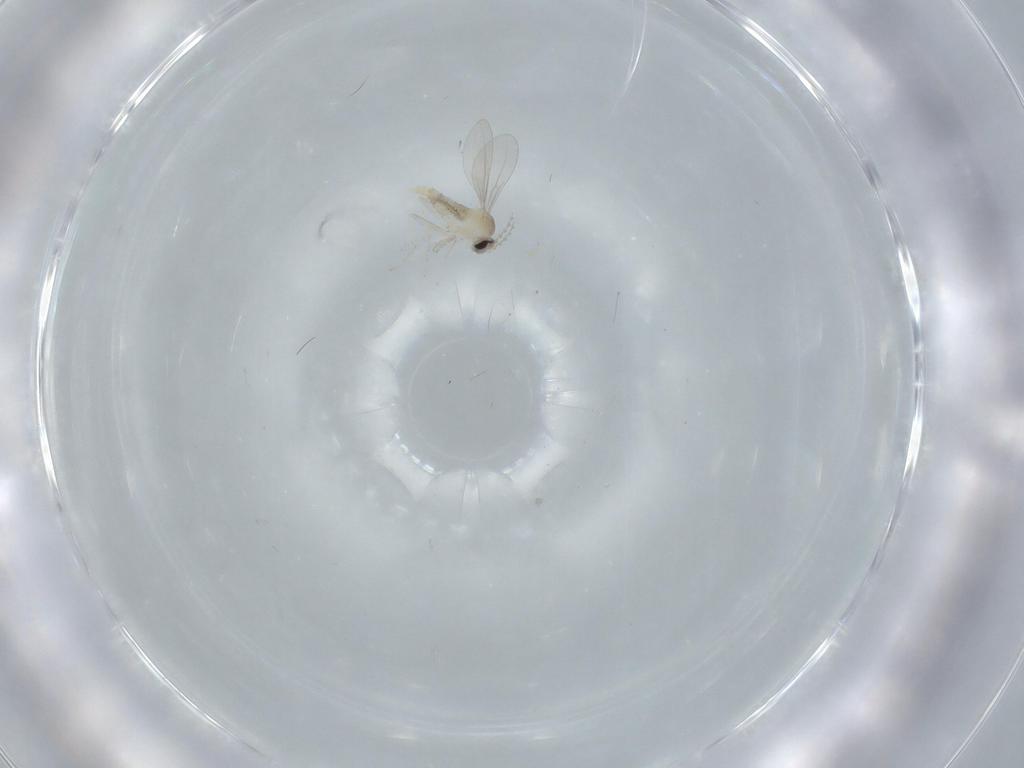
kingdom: Animalia
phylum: Arthropoda
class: Insecta
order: Diptera
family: Cecidomyiidae
